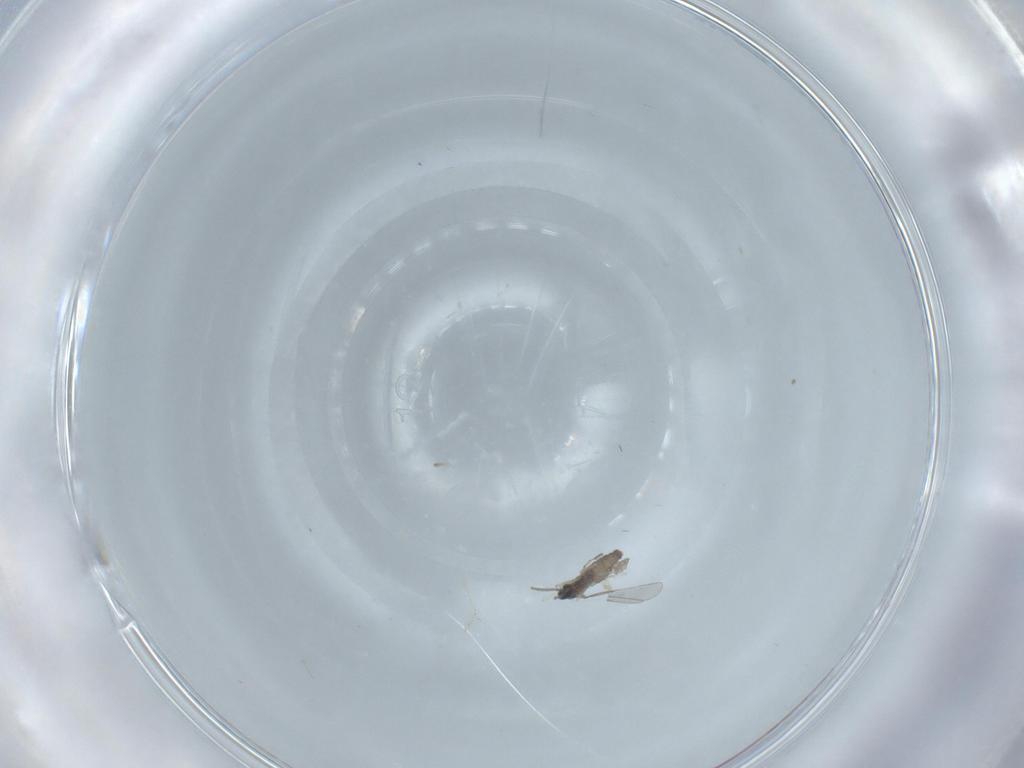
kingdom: Animalia
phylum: Arthropoda
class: Insecta
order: Diptera
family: Cecidomyiidae
